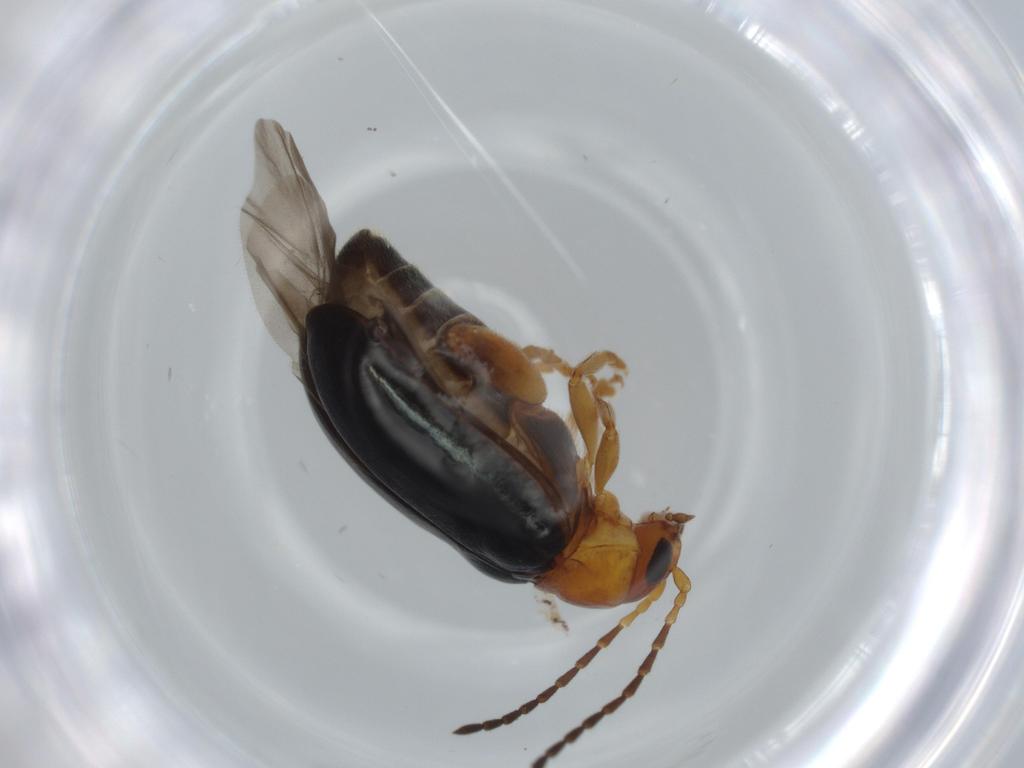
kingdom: Animalia
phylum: Arthropoda
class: Insecta
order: Coleoptera
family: Chrysomelidae
